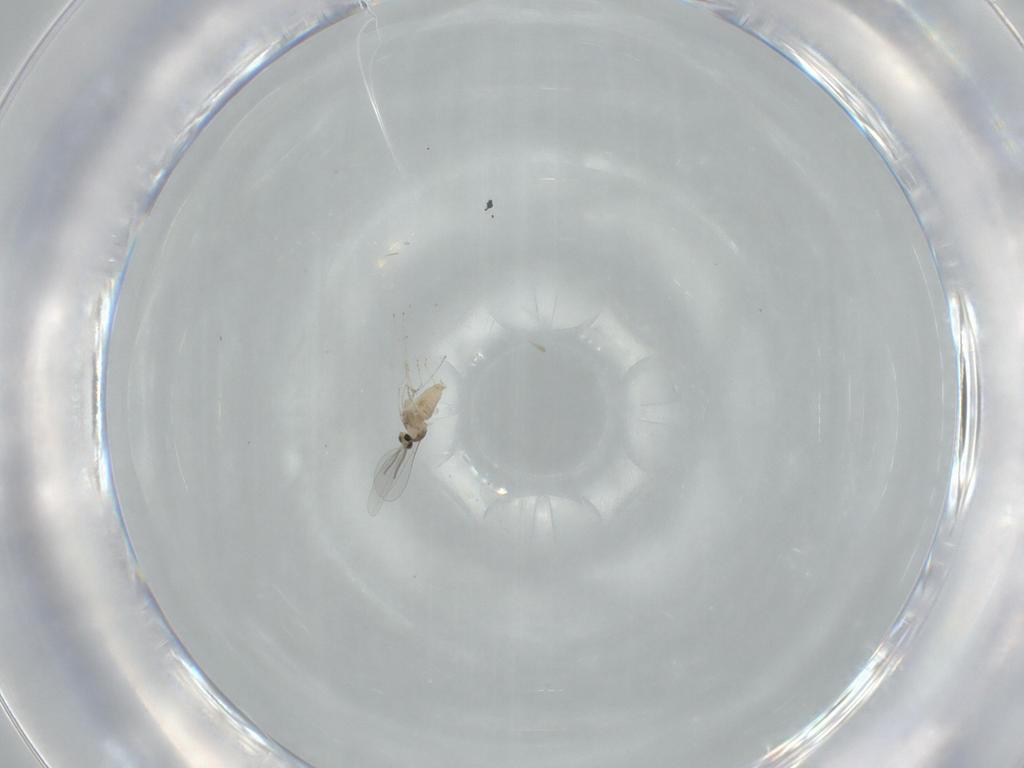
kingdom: Animalia
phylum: Arthropoda
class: Insecta
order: Diptera
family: Cecidomyiidae
